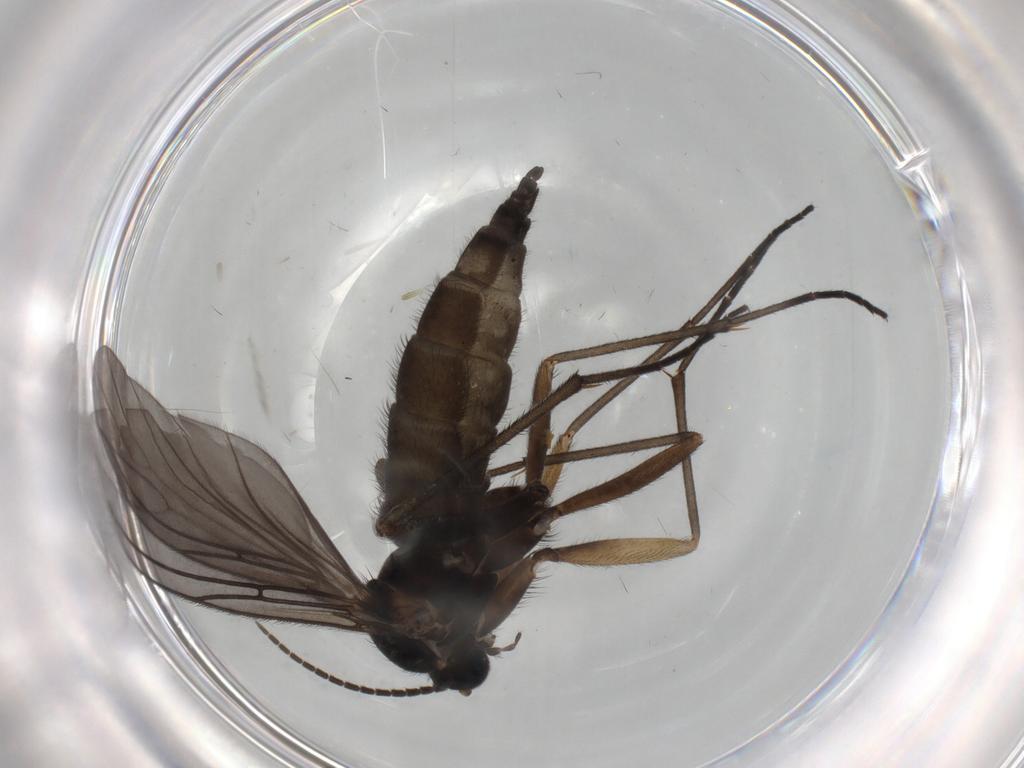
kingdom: Animalia
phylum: Arthropoda
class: Insecta
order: Diptera
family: Sciaridae
